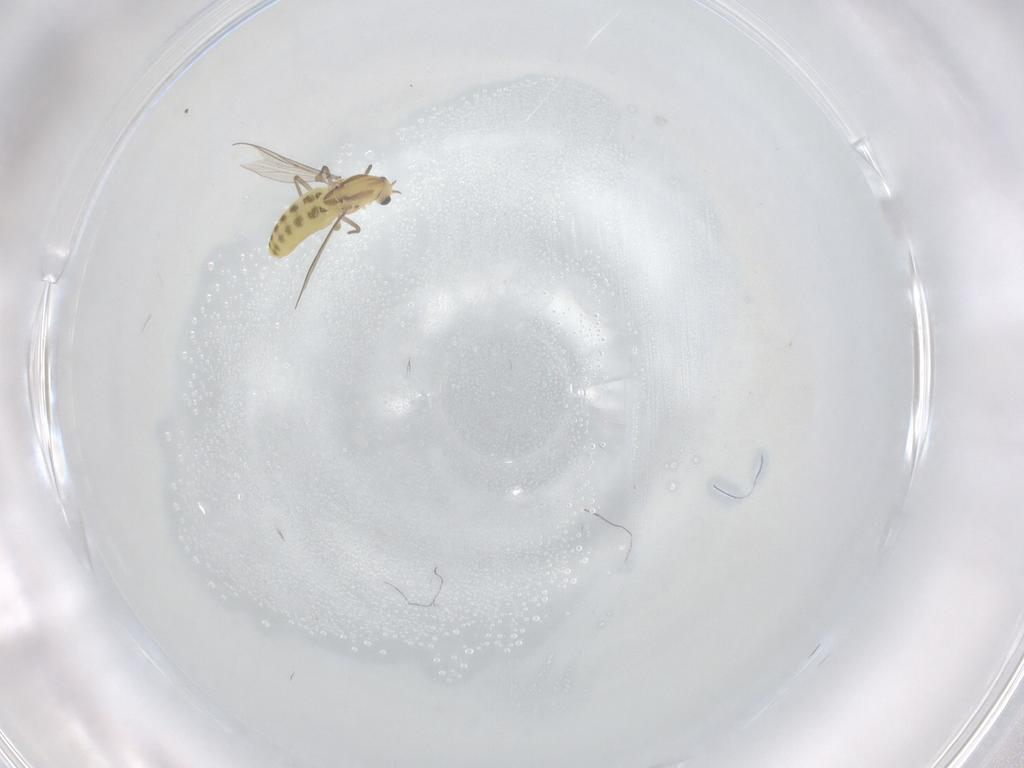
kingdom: Animalia
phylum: Arthropoda
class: Insecta
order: Diptera
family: Chironomidae
